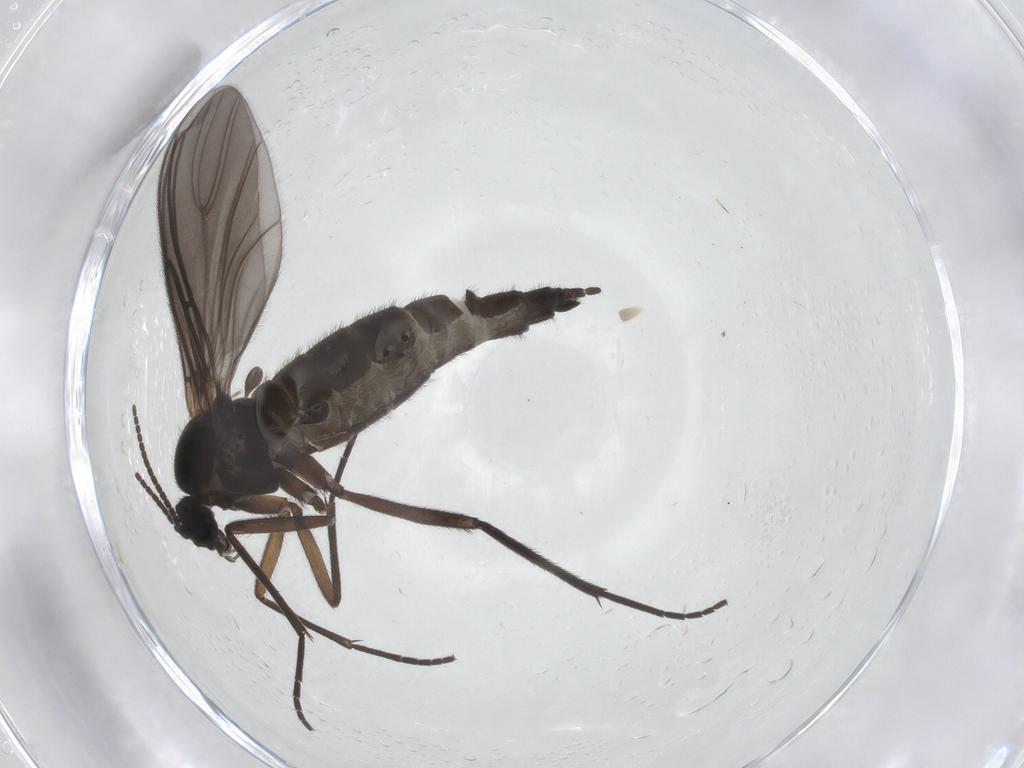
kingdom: Animalia
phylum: Arthropoda
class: Insecta
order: Diptera
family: Sciaridae
